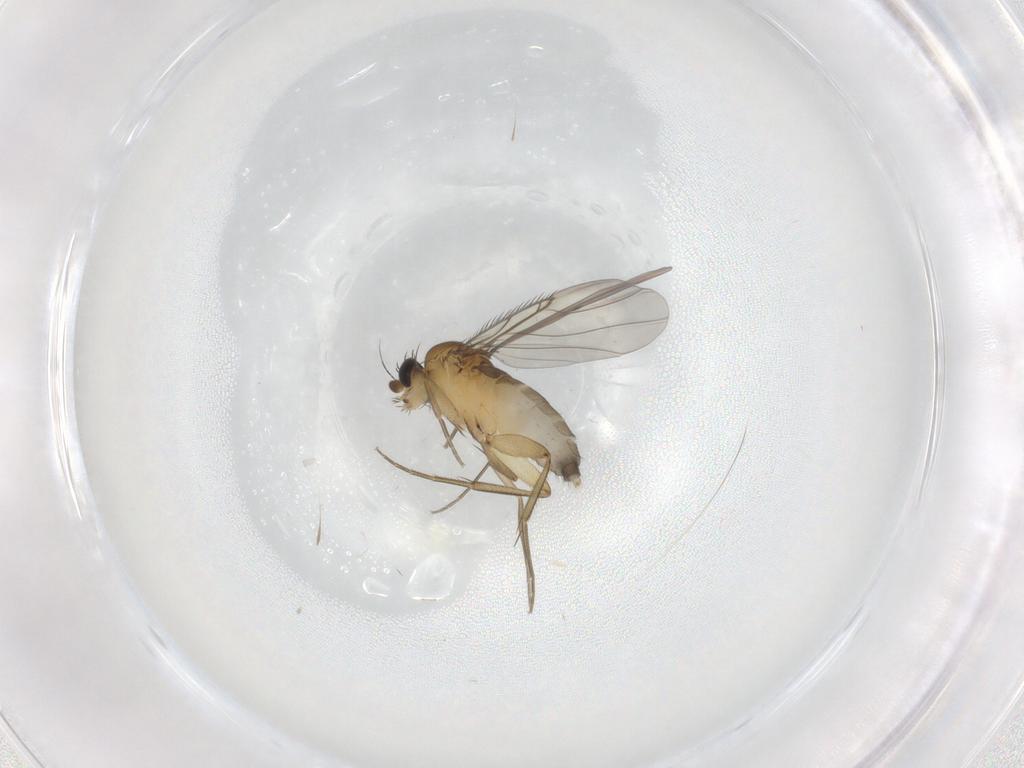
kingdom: Animalia
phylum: Arthropoda
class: Insecta
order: Diptera
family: Phoridae
